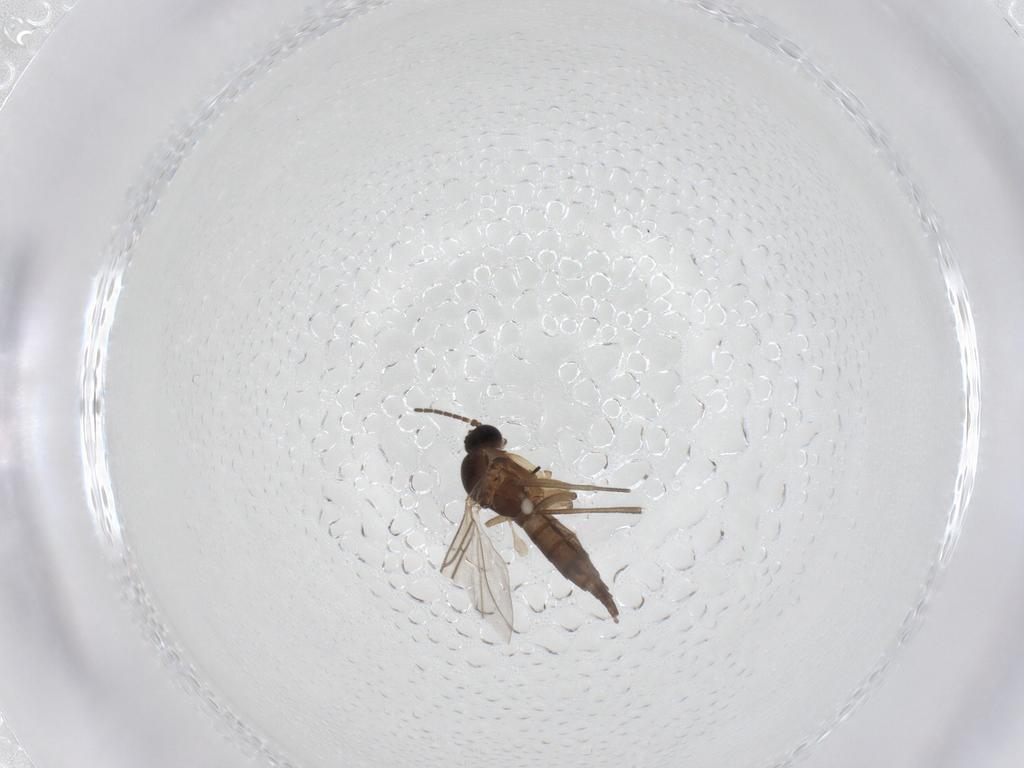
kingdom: Animalia
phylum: Arthropoda
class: Insecta
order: Diptera
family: Sciaridae
